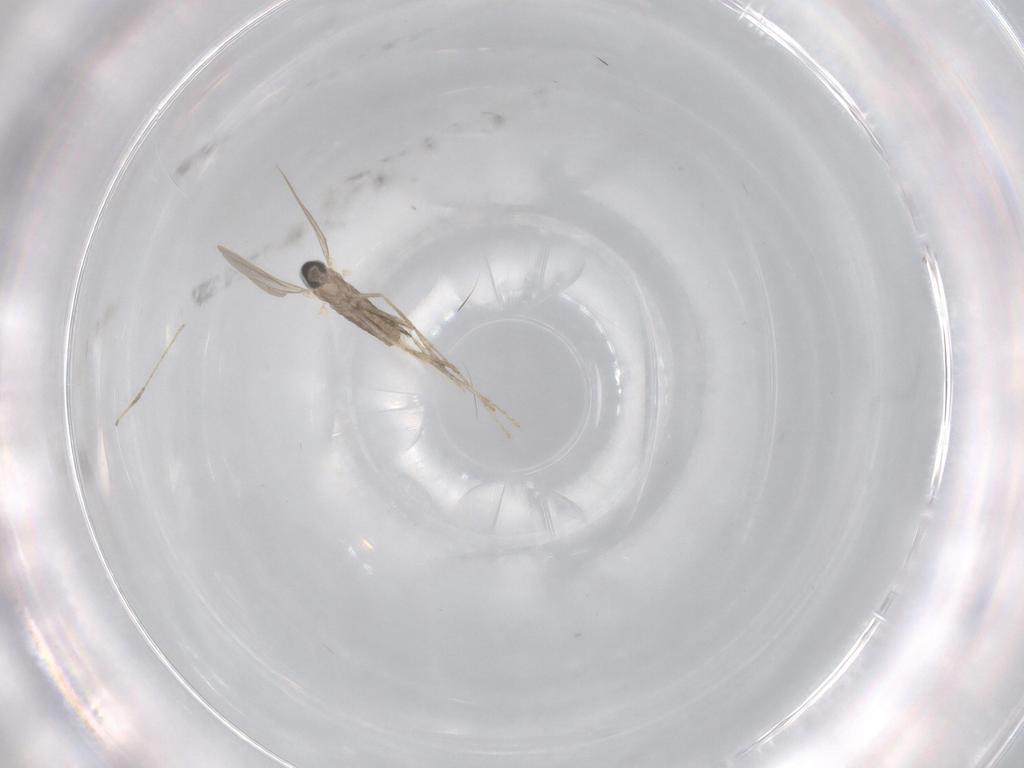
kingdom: Animalia
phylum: Arthropoda
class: Insecta
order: Diptera
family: Cecidomyiidae
